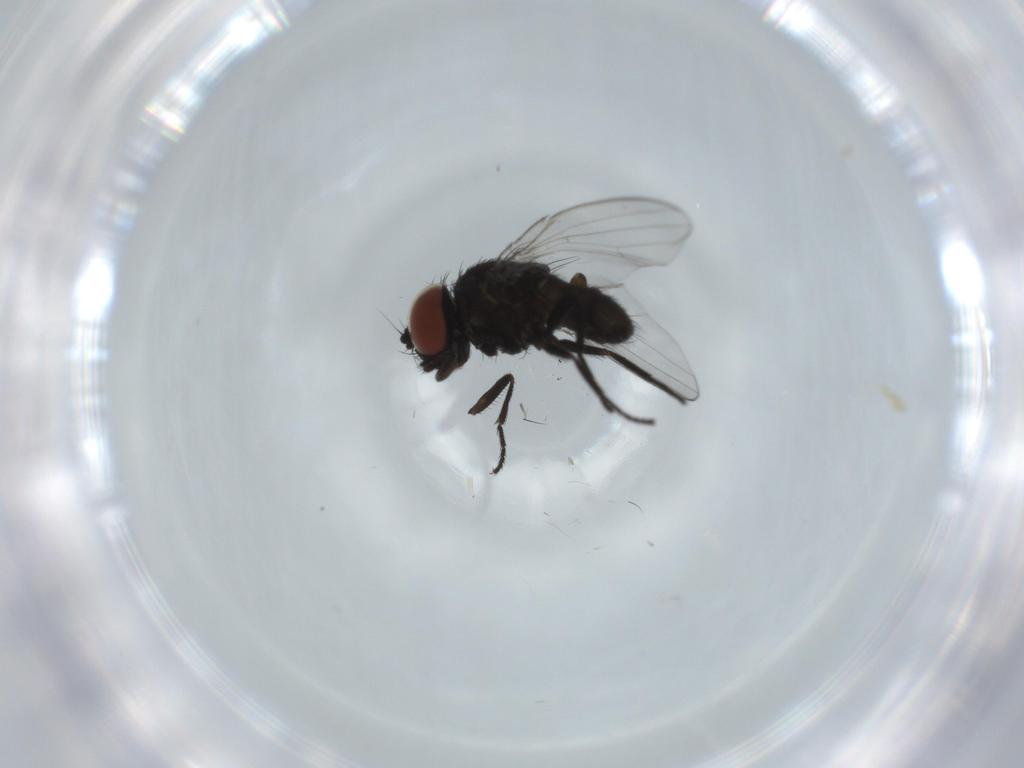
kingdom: Animalia
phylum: Arthropoda
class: Insecta
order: Diptera
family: Milichiidae
